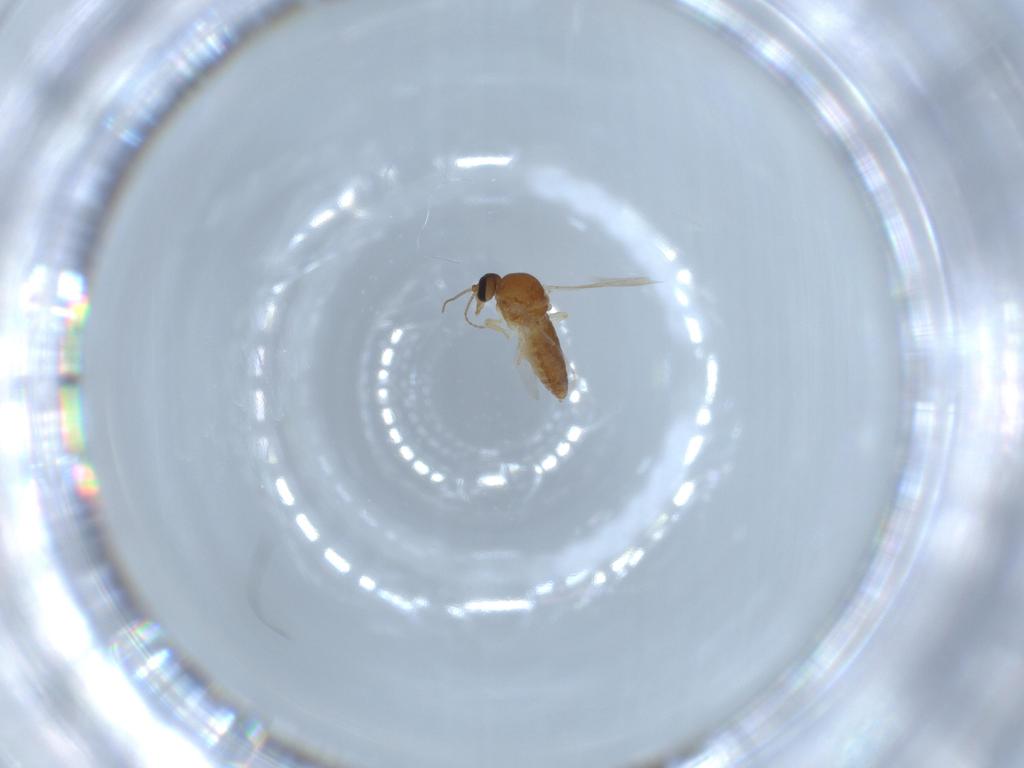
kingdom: Animalia
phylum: Arthropoda
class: Insecta
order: Diptera
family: Ceratopogonidae
